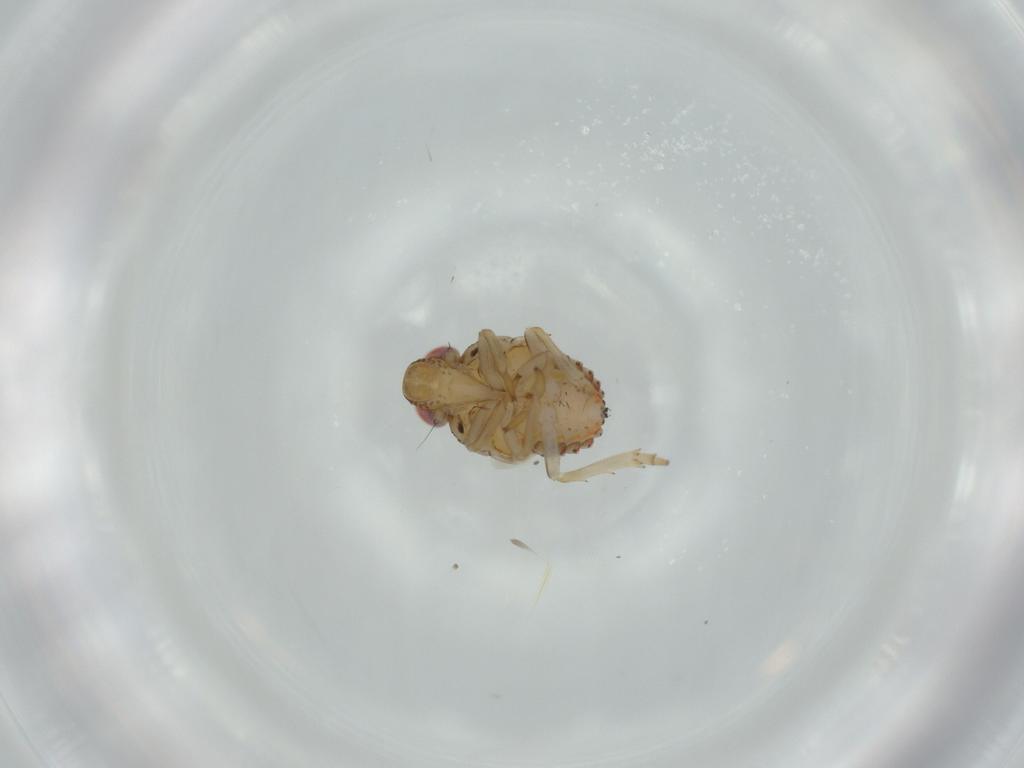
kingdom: Animalia
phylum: Arthropoda
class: Insecta
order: Hemiptera
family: Issidae
